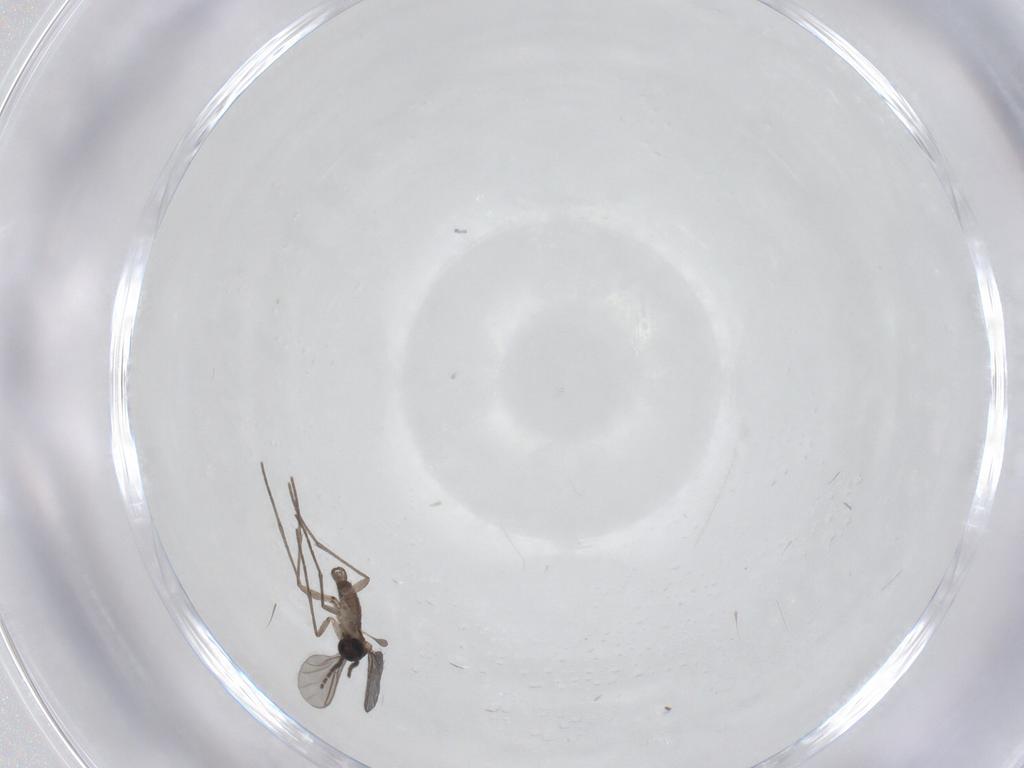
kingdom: Animalia
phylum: Arthropoda
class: Insecta
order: Diptera
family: Sciaridae
